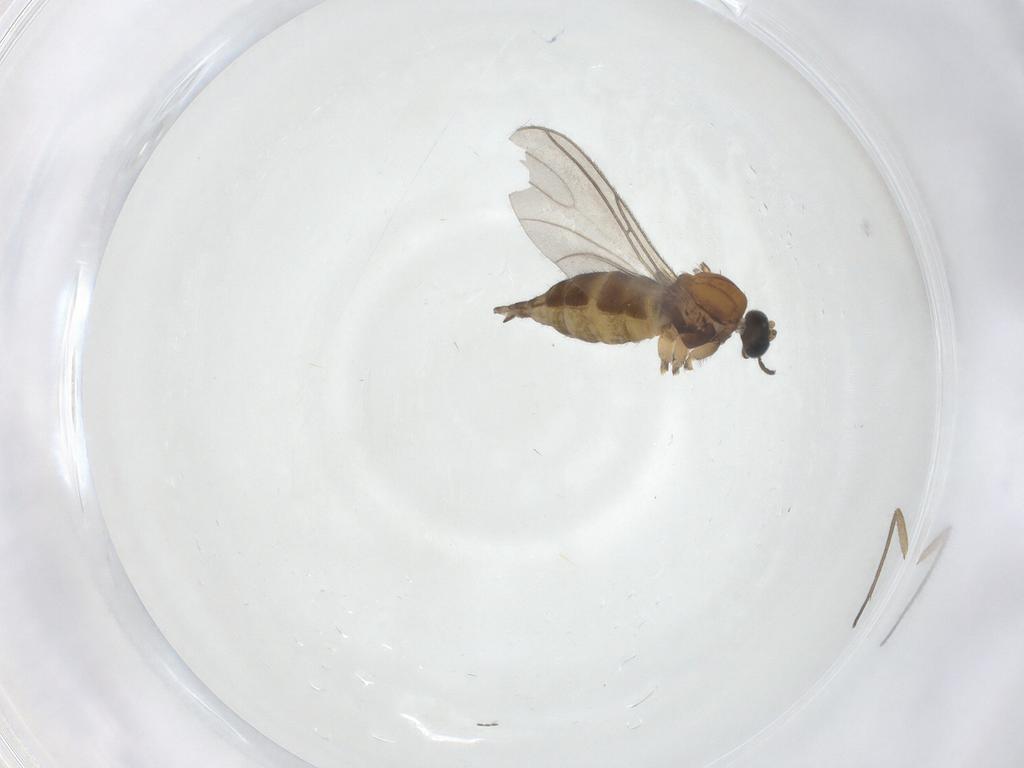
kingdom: Animalia
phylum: Arthropoda
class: Insecta
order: Diptera
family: Sciaridae
